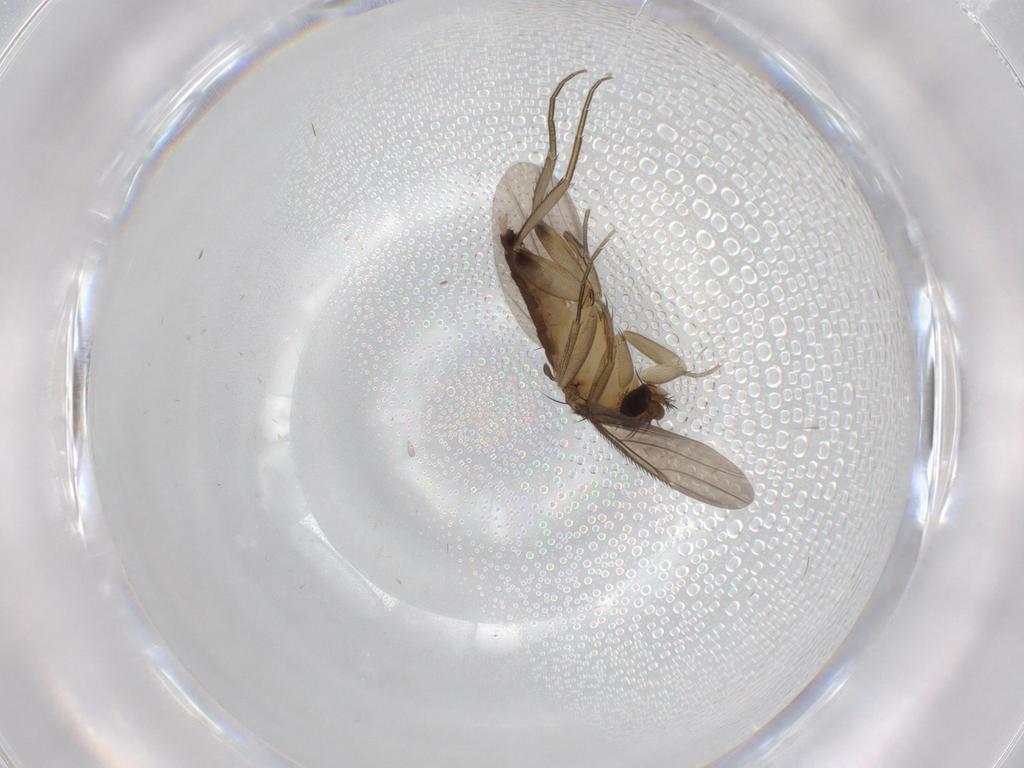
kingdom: Animalia
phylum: Arthropoda
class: Insecta
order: Diptera
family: Phoridae
